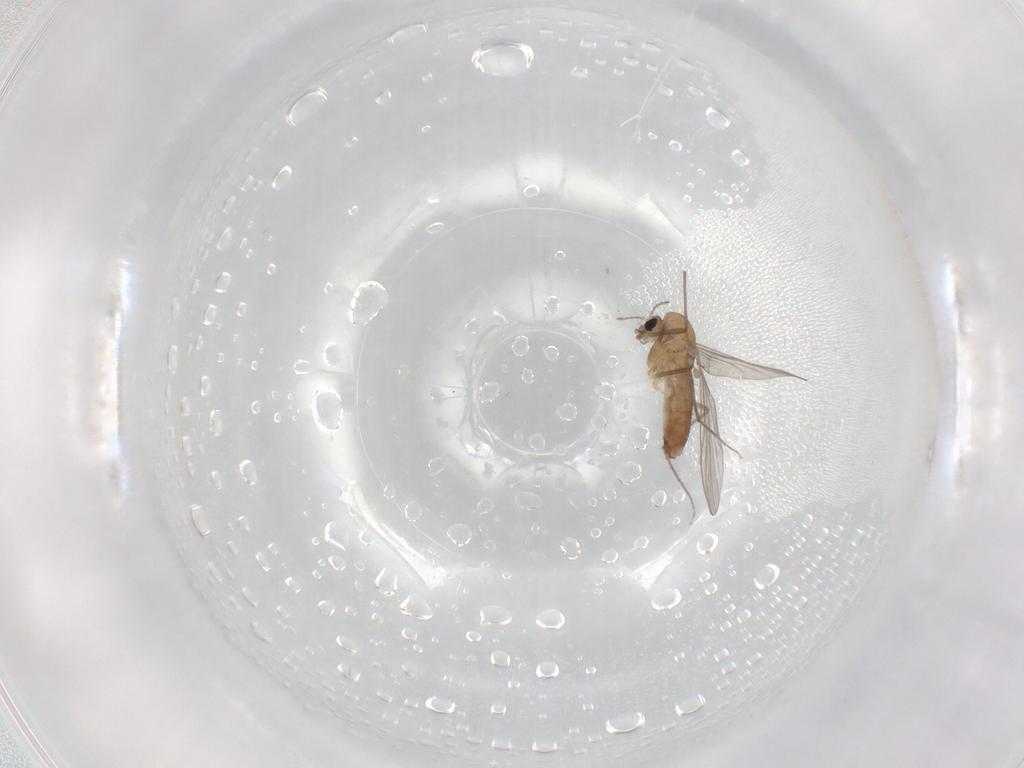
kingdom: Animalia
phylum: Arthropoda
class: Insecta
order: Diptera
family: Chironomidae
